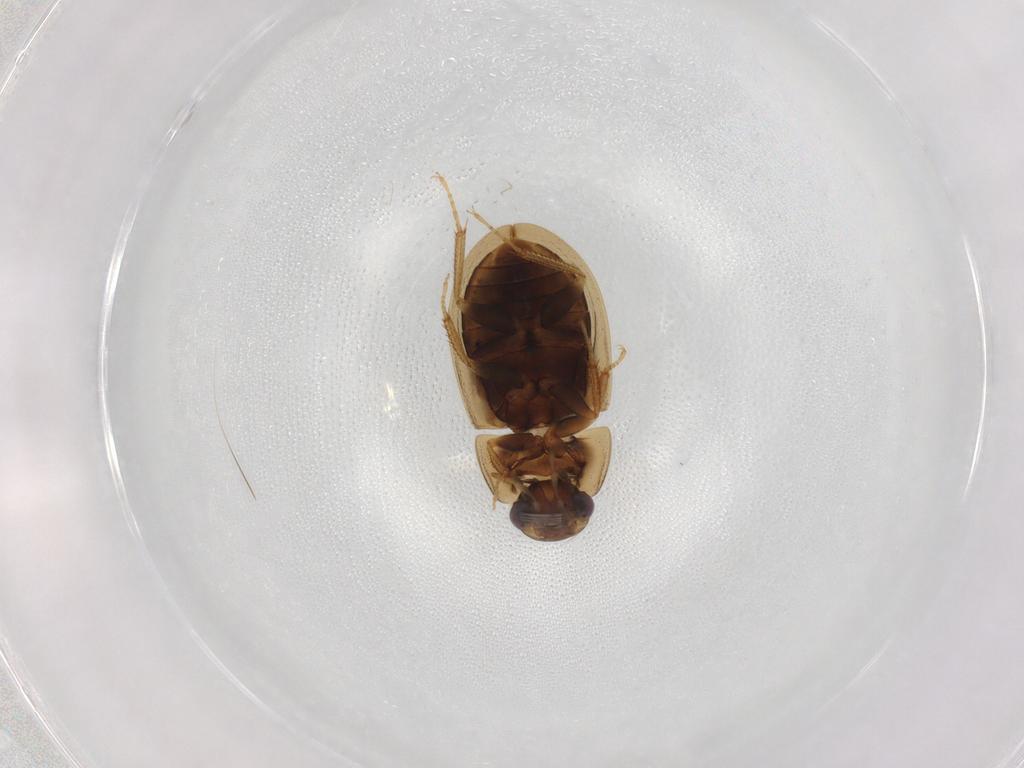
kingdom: Animalia
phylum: Arthropoda
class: Insecta
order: Coleoptera
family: Hydrophilidae
